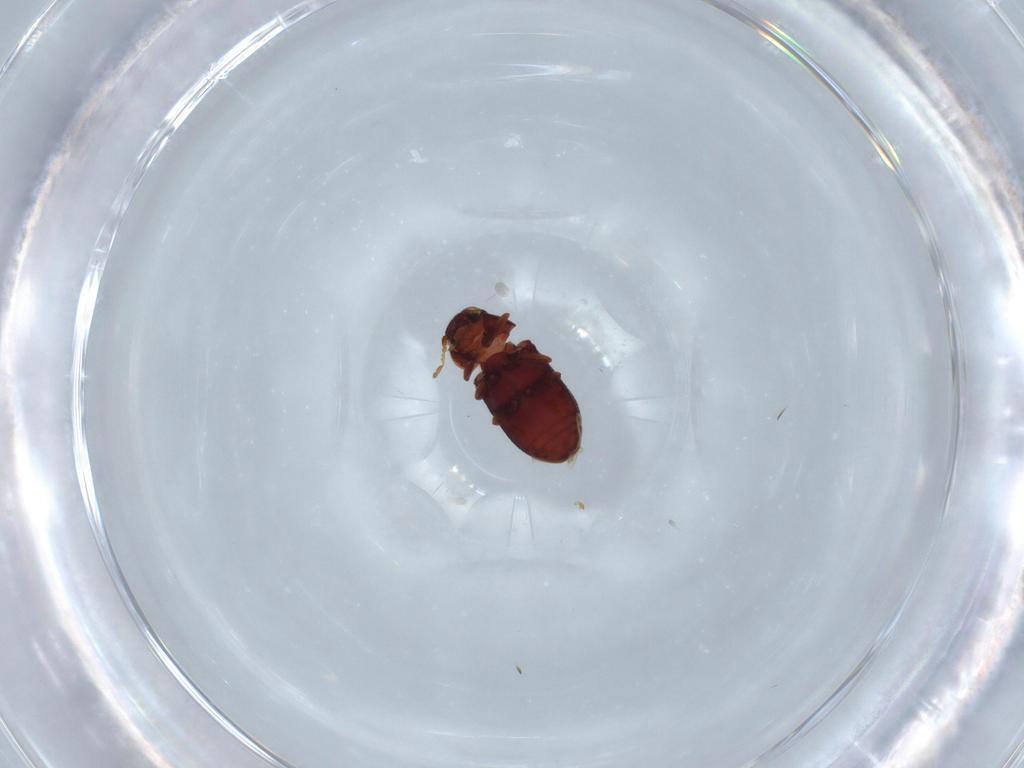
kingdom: Animalia
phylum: Arthropoda
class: Insecta
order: Coleoptera
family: Ptinidae
